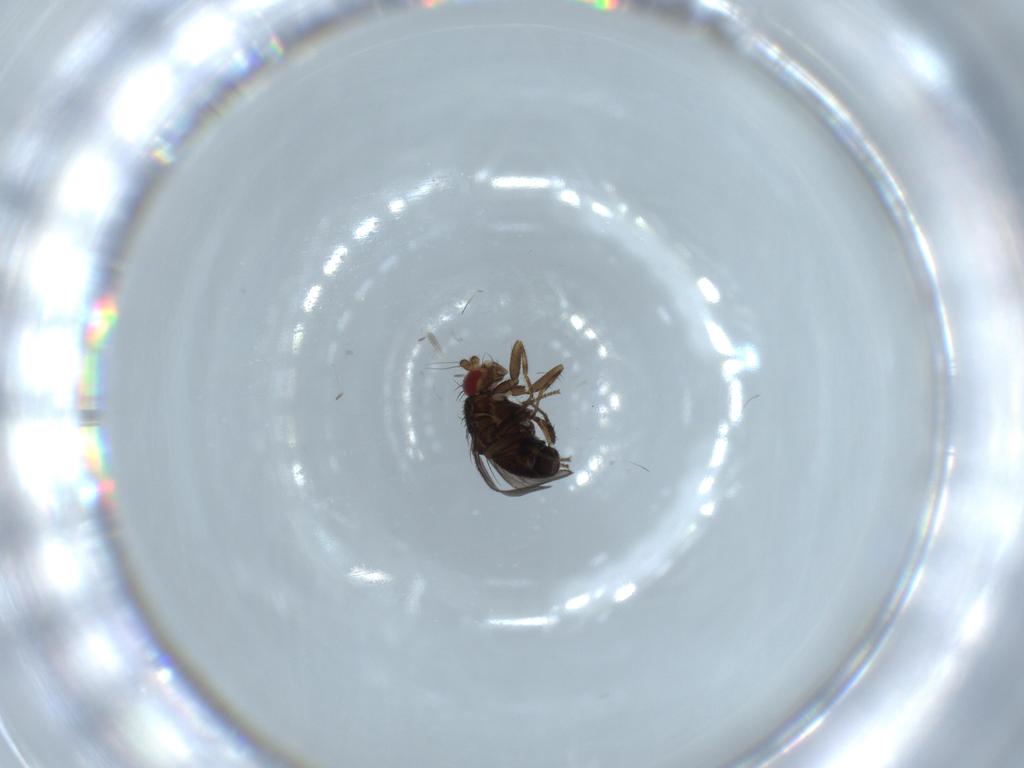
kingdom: Animalia
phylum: Arthropoda
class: Insecta
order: Diptera
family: Sphaeroceridae
